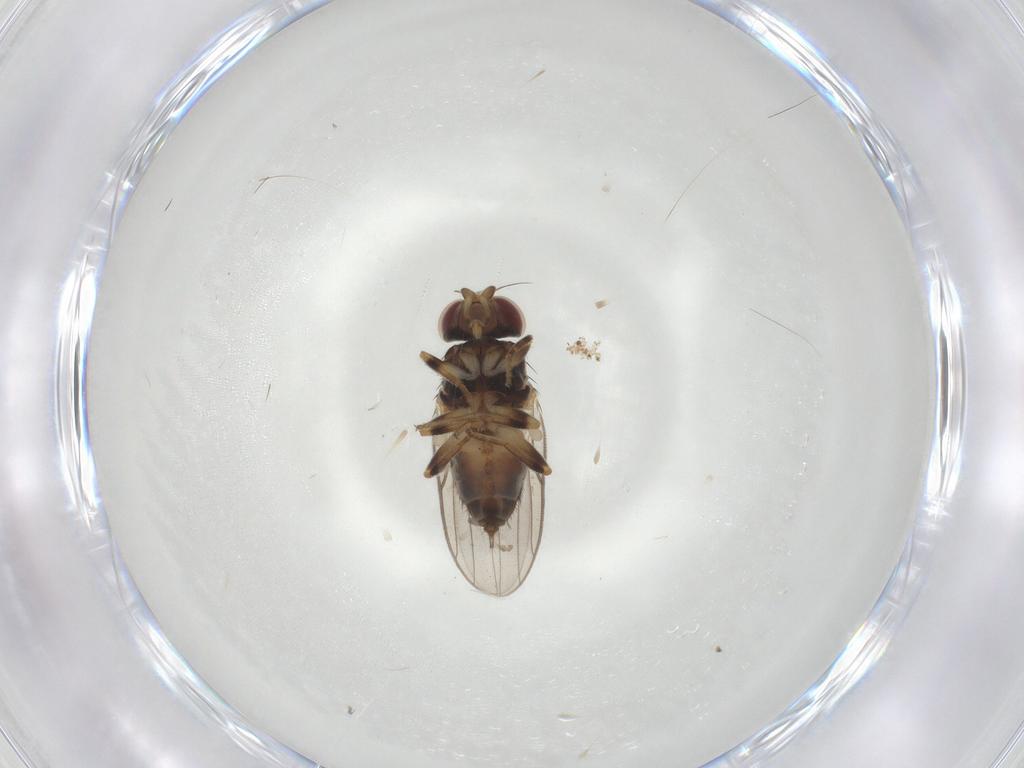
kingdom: Animalia
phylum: Arthropoda
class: Insecta
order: Diptera
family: Chloropidae
